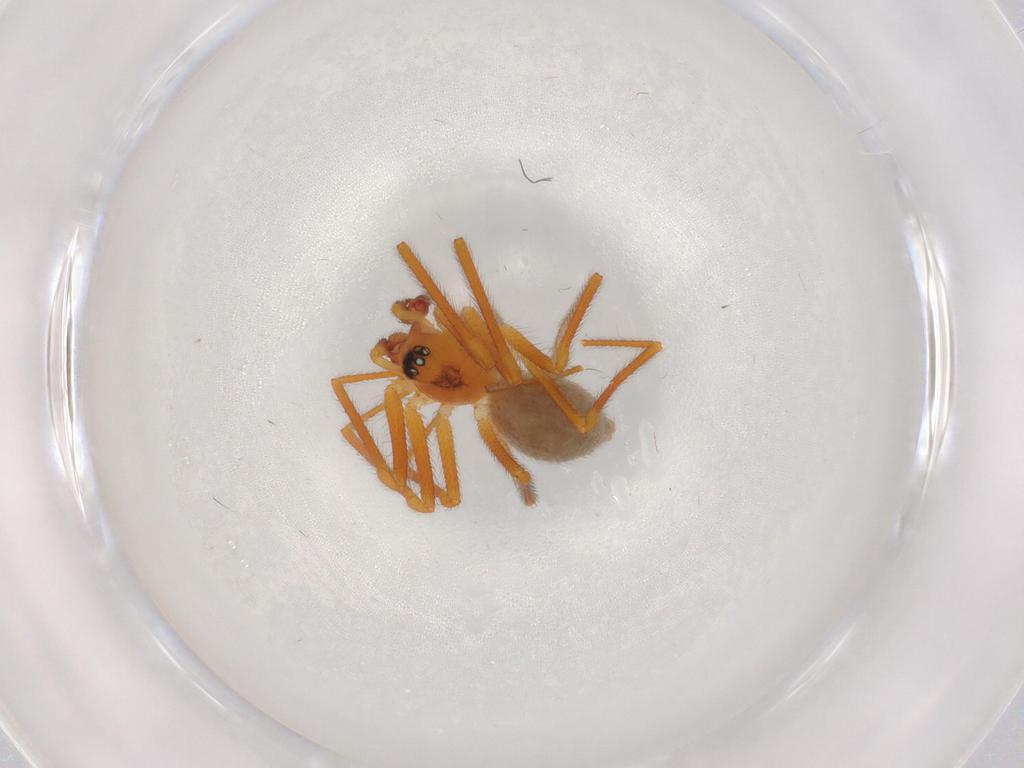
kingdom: Animalia
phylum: Arthropoda
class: Arachnida
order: Araneae
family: Linyphiidae
